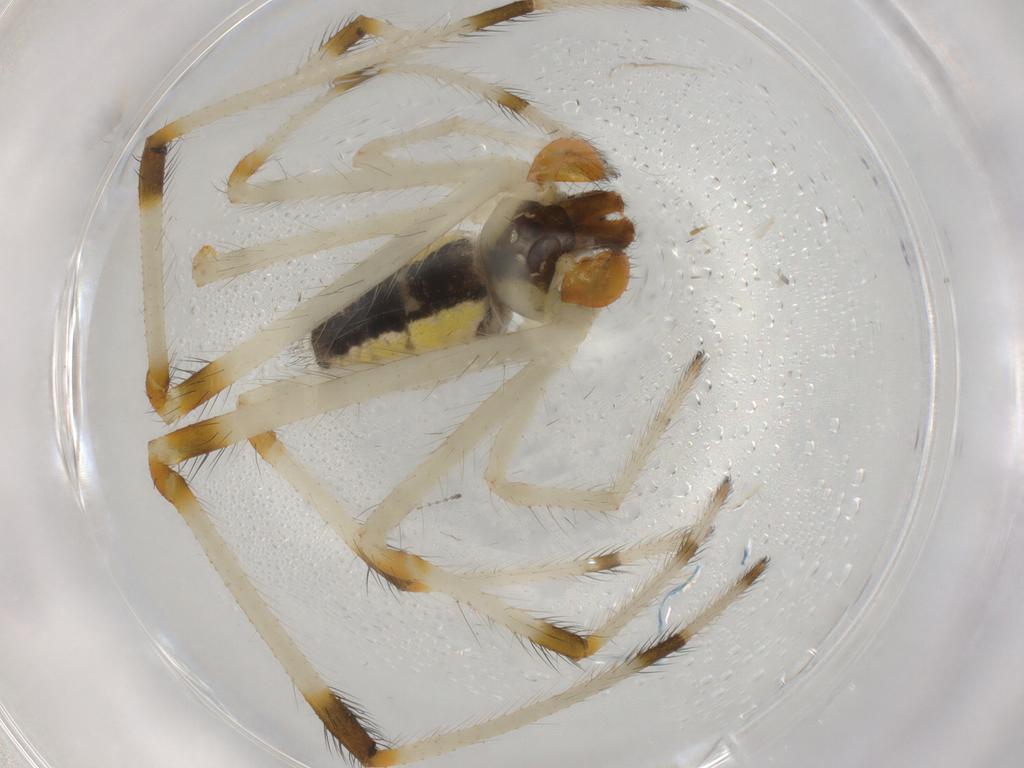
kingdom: Animalia
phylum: Arthropoda
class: Arachnida
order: Araneae
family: Theridiidae
